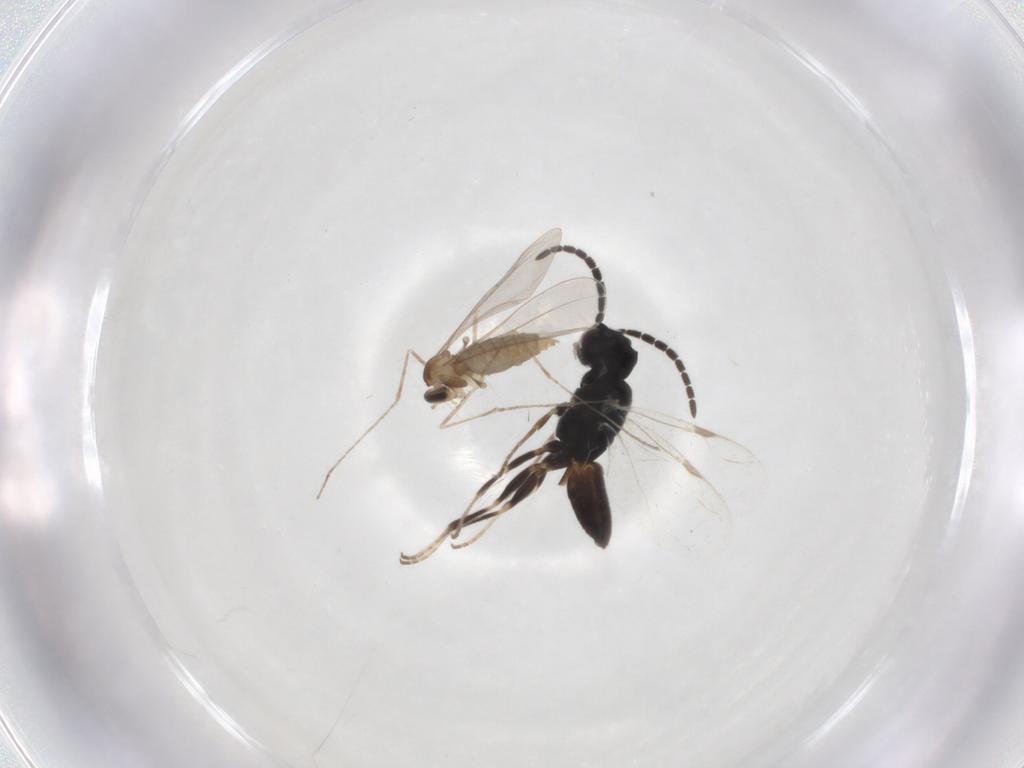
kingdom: Animalia
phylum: Arthropoda
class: Insecta
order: Diptera
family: Cecidomyiidae
